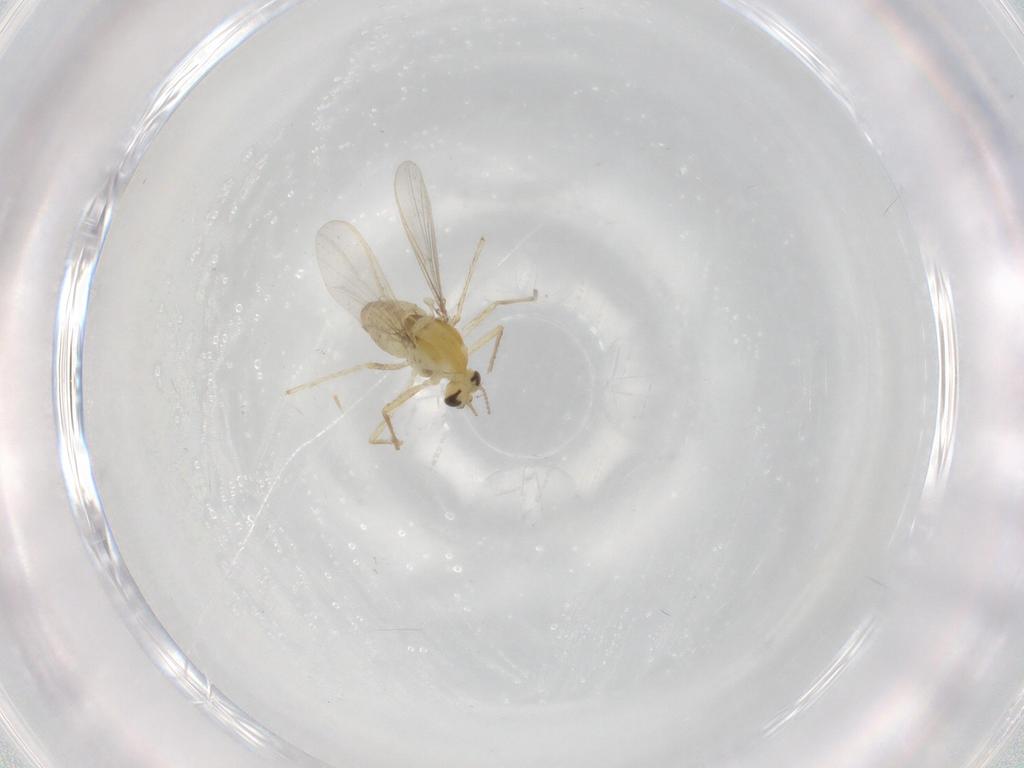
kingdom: Animalia
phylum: Arthropoda
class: Insecta
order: Diptera
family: Chironomidae
